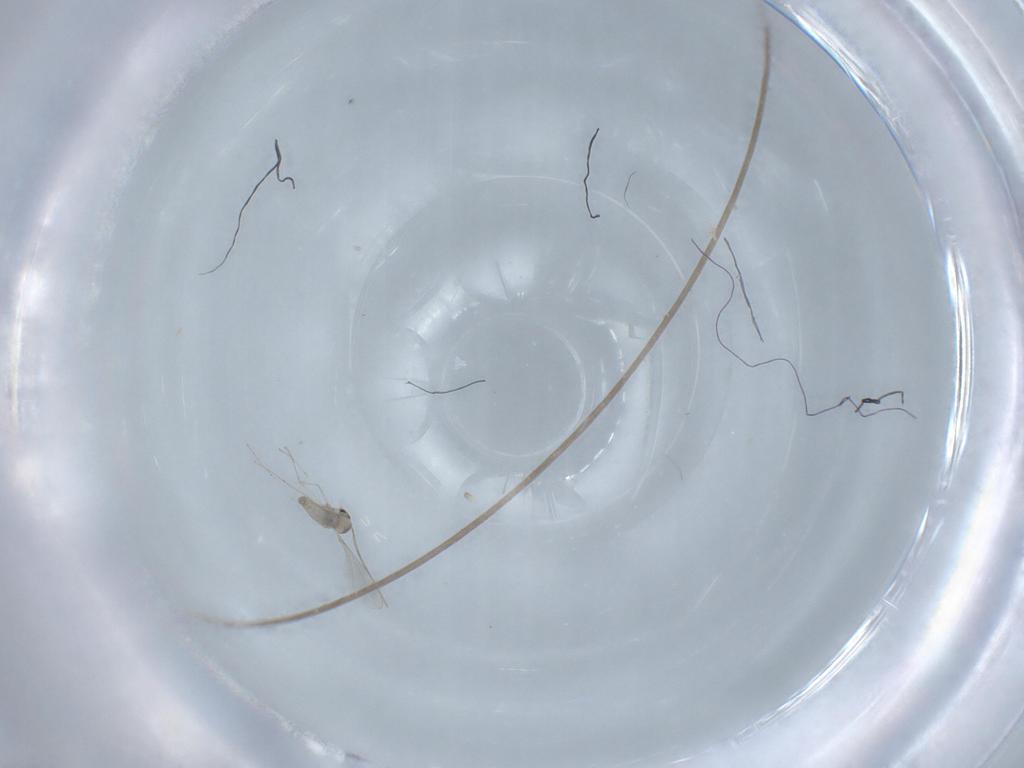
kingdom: Animalia
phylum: Arthropoda
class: Insecta
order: Diptera
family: Cecidomyiidae
